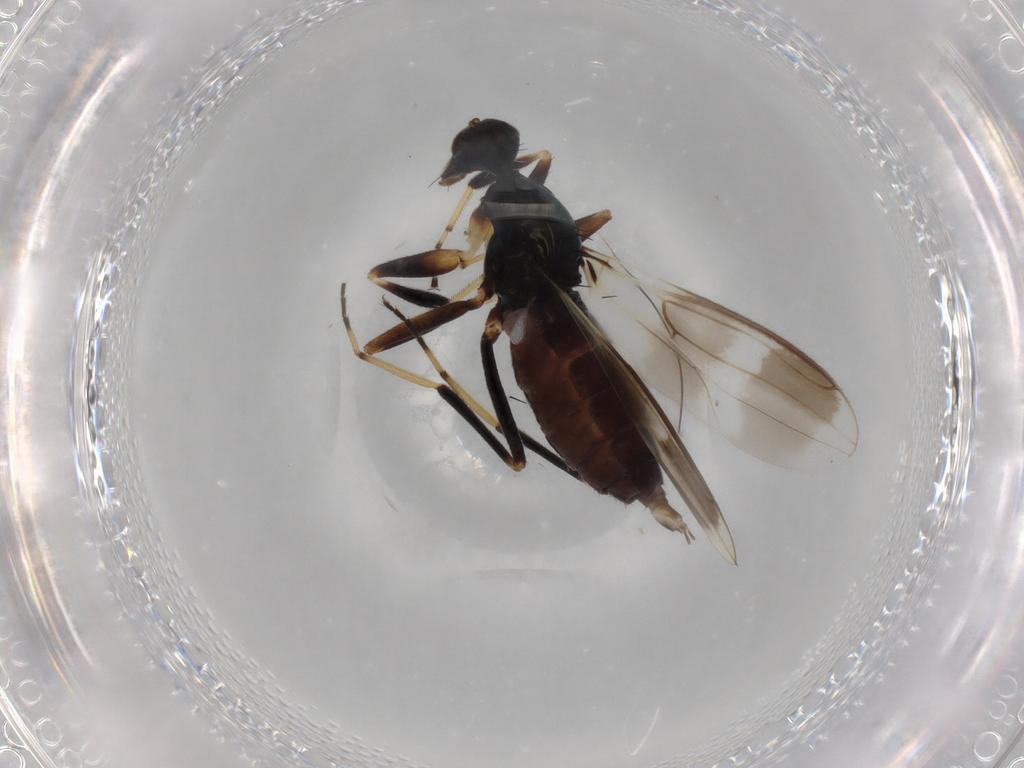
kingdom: Animalia
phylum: Arthropoda
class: Insecta
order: Diptera
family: Hybotidae
